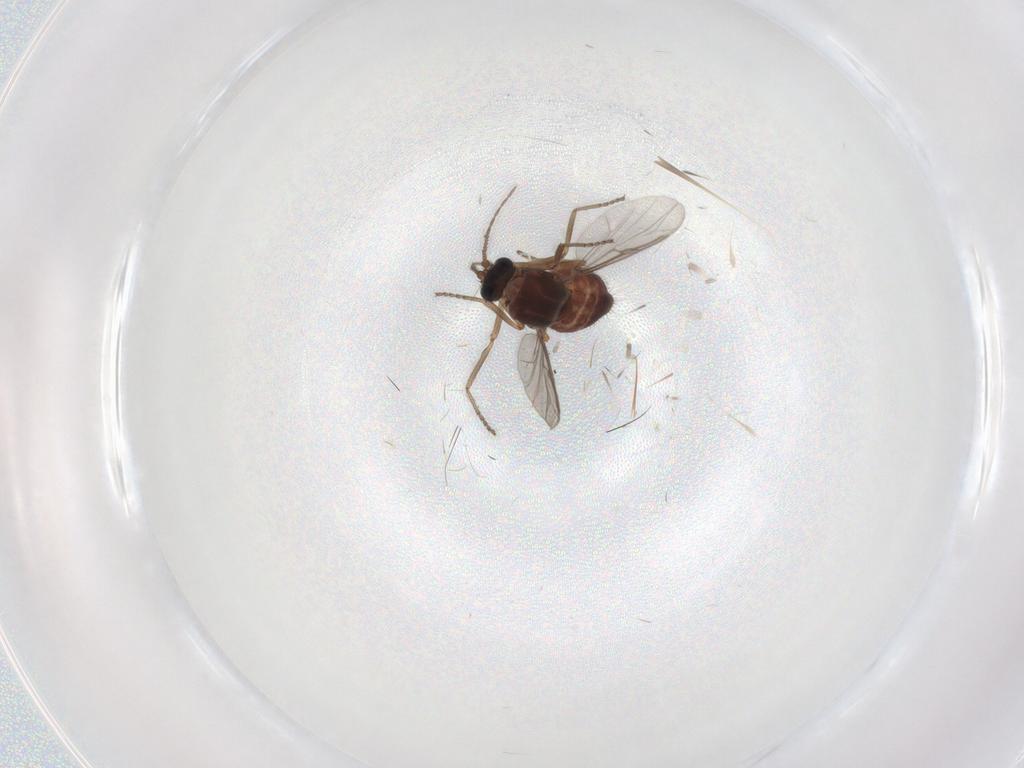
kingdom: Animalia
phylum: Arthropoda
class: Insecta
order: Diptera
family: Ceratopogonidae
